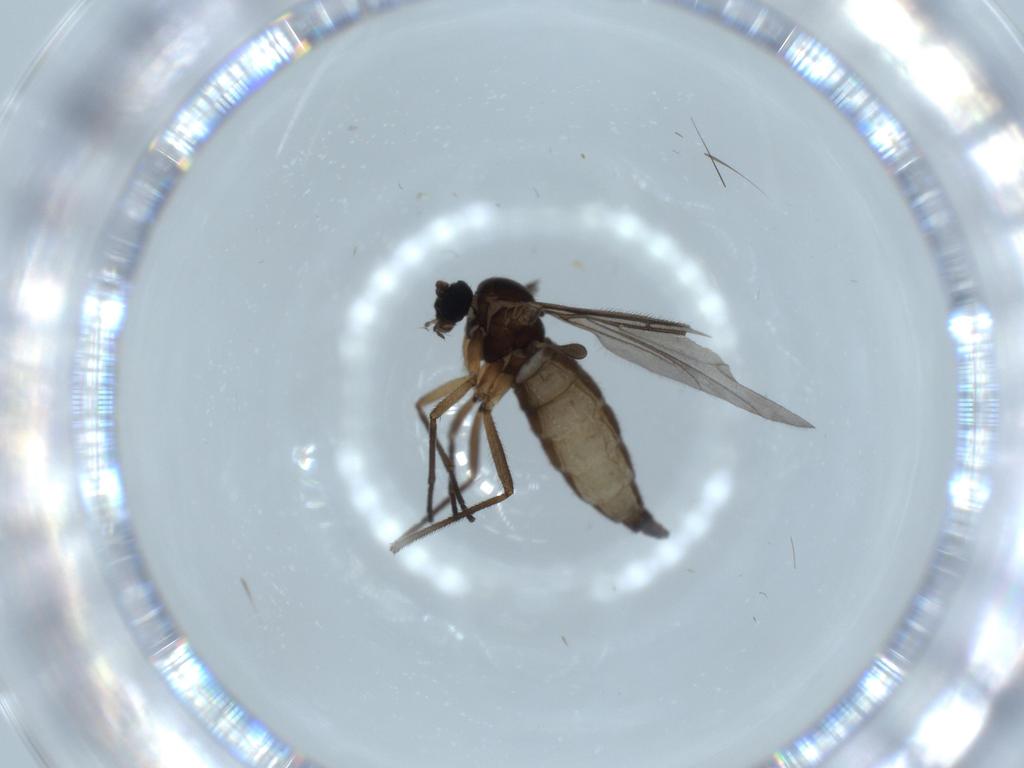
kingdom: Animalia
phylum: Arthropoda
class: Insecta
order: Diptera
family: Sciaridae
